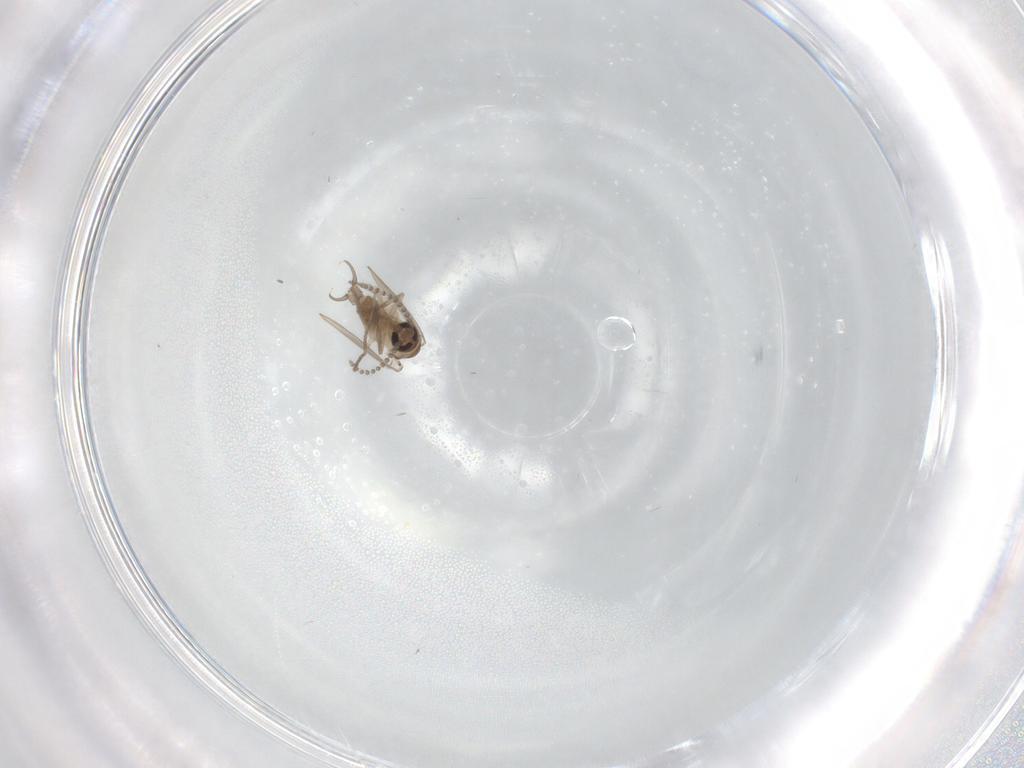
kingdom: Animalia
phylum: Arthropoda
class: Insecta
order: Diptera
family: Psychodidae
